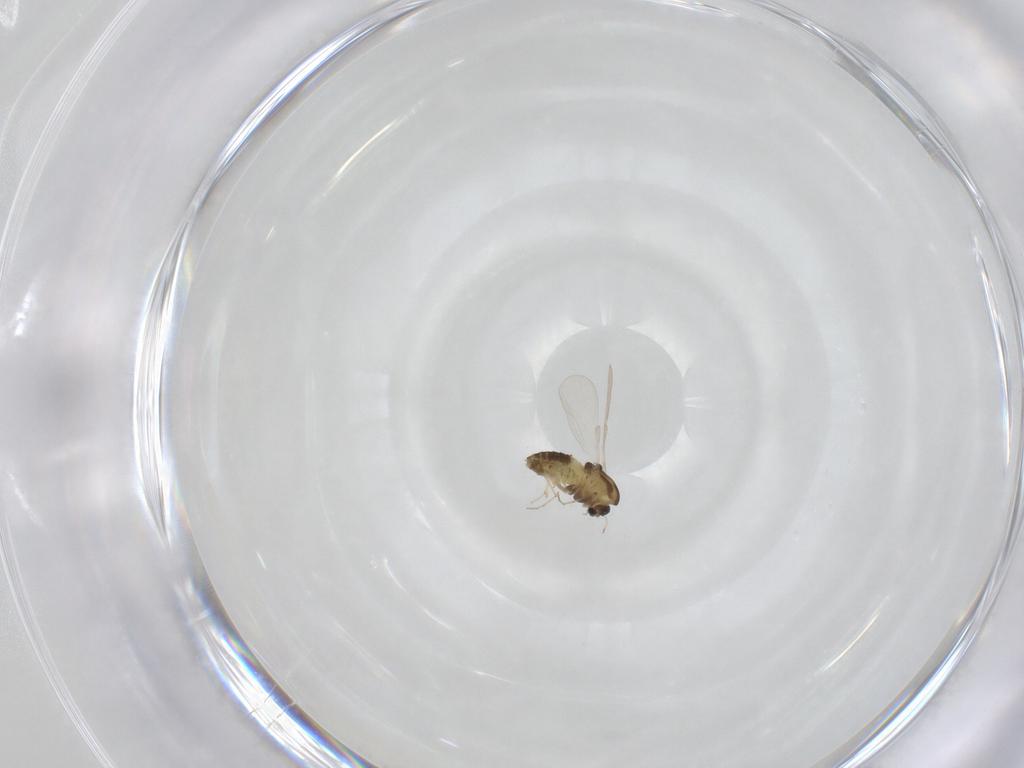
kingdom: Animalia
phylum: Arthropoda
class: Insecta
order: Diptera
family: Chironomidae
